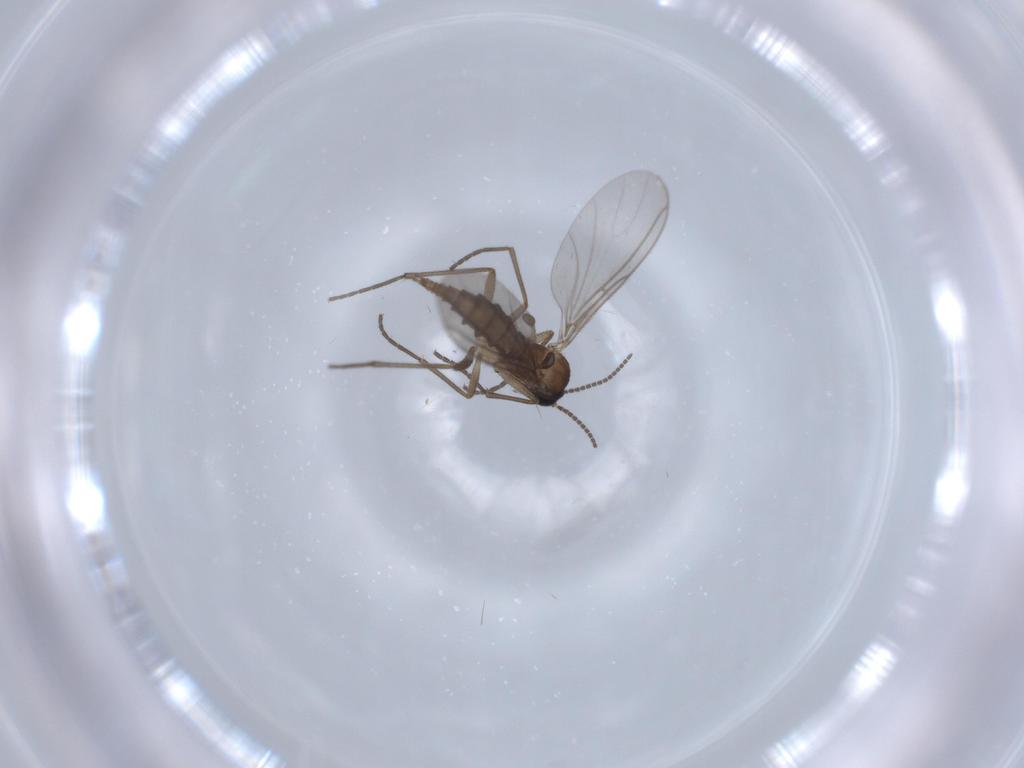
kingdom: Animalia
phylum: Arthropoda
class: Insecta
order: Diptera
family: Sciaridae
